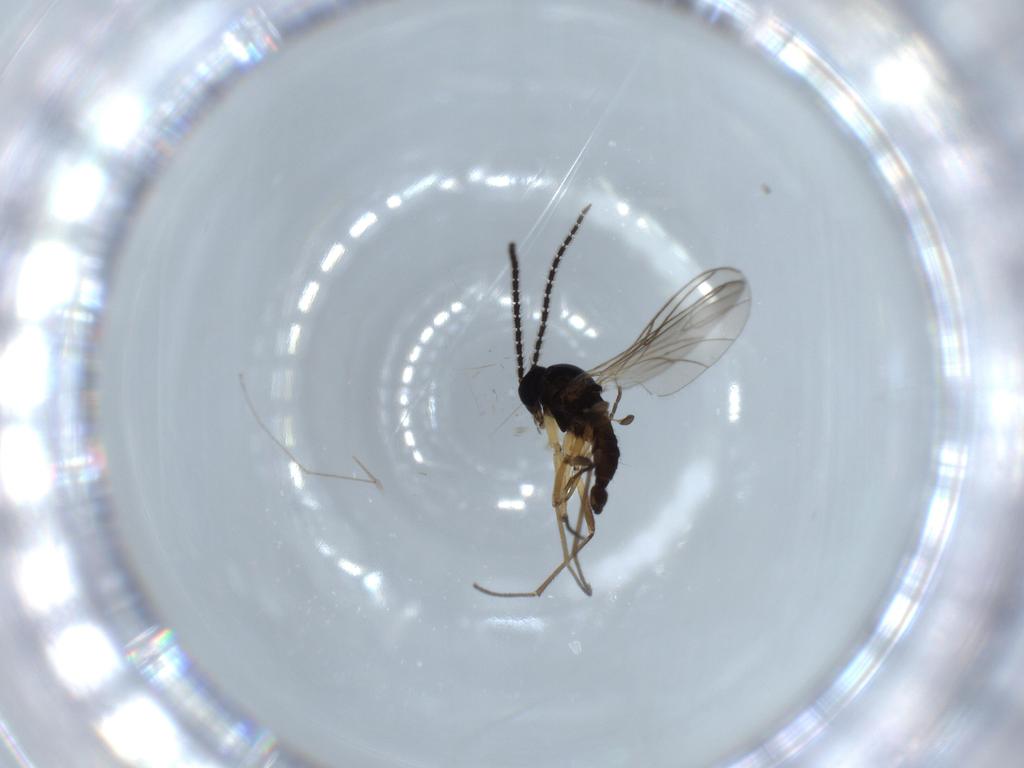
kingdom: Animalia
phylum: Arthropoda
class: Insecta
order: Diptera
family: Sciaridae
